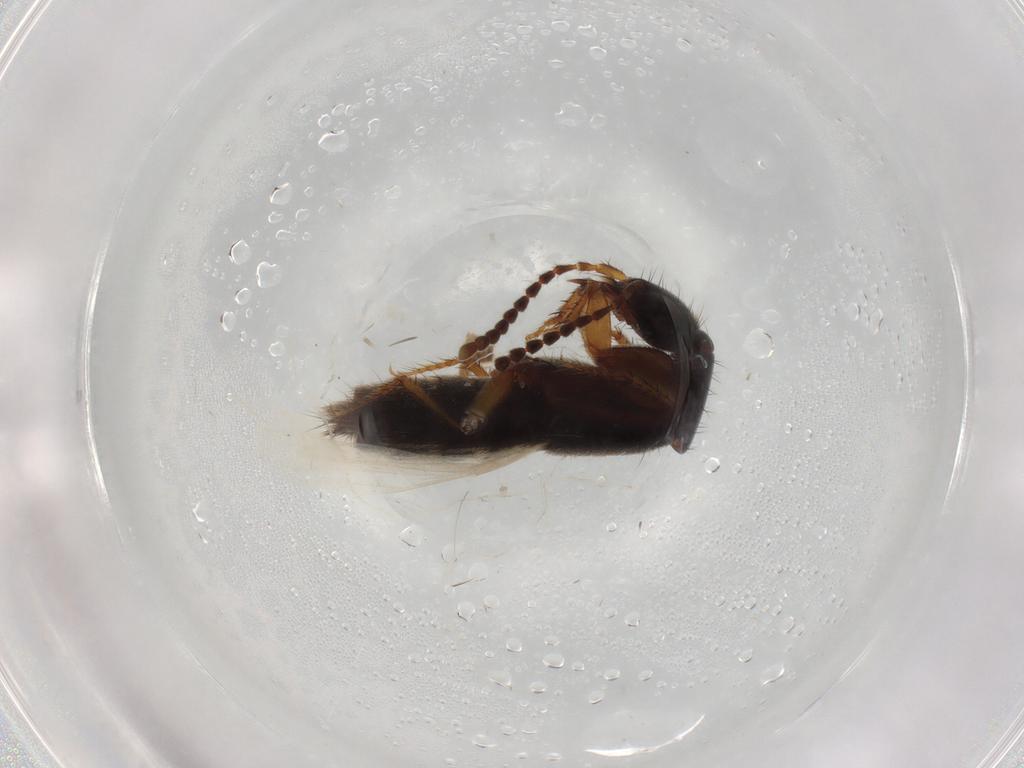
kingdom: Animalia
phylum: Arthropoda
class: Insecta
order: Coleoptera
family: Staphylinidae
